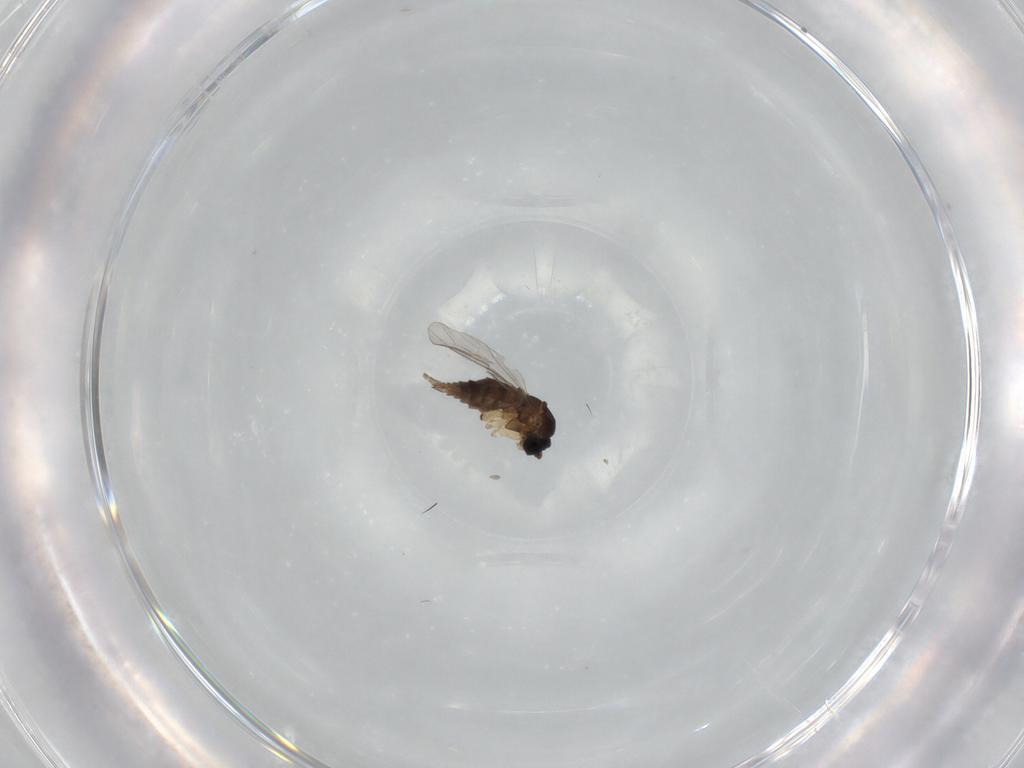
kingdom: Animalia
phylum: Arthropoda
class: Insecta
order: Diptera
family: Sciaridae
